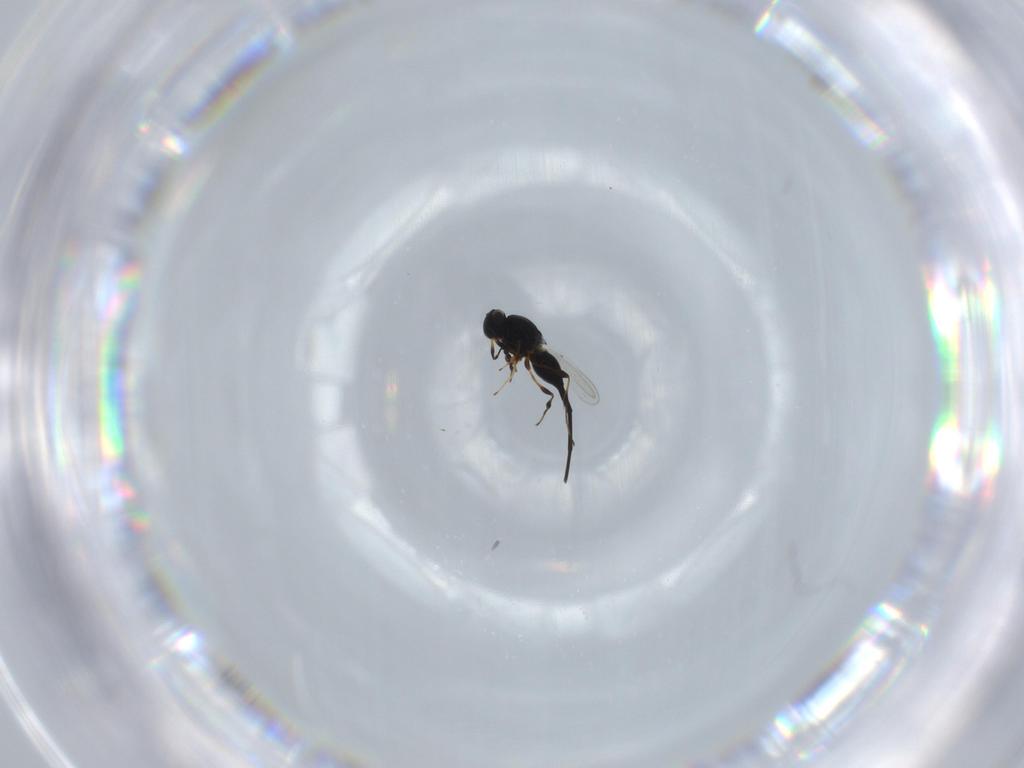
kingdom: Animalia
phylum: Arthropoda
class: Insecta
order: Hymenoptera
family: Platygastridae
